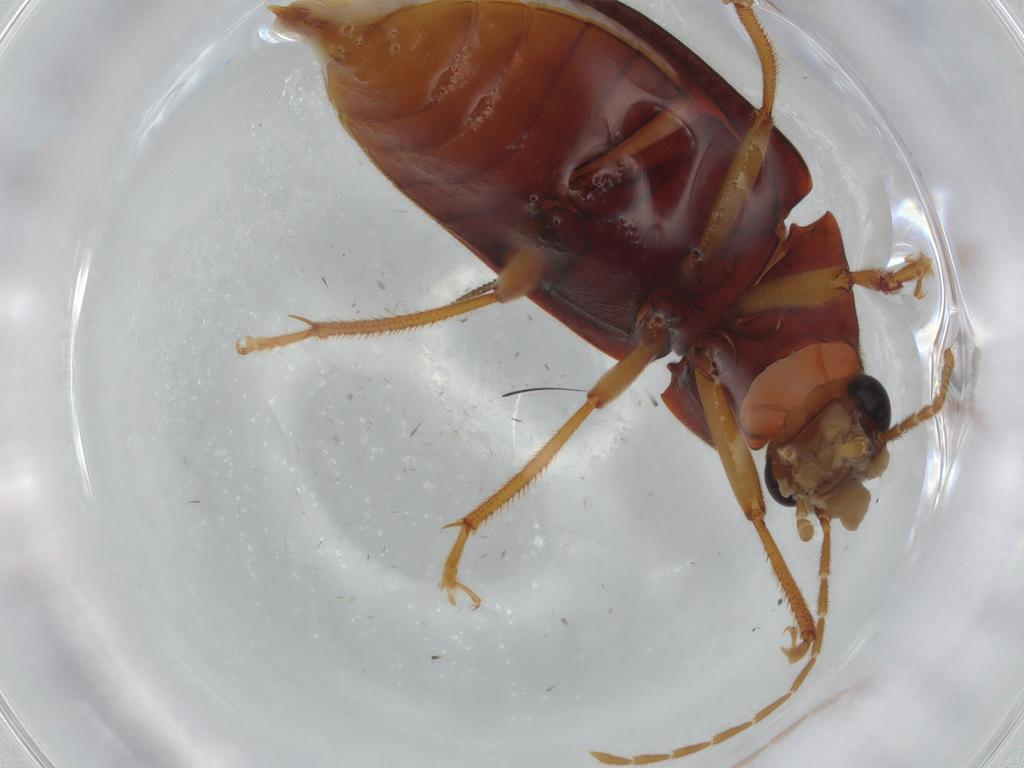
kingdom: Animalia
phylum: Arthropoda
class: Insecta
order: Coleoptera
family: Ptilodactylidae
